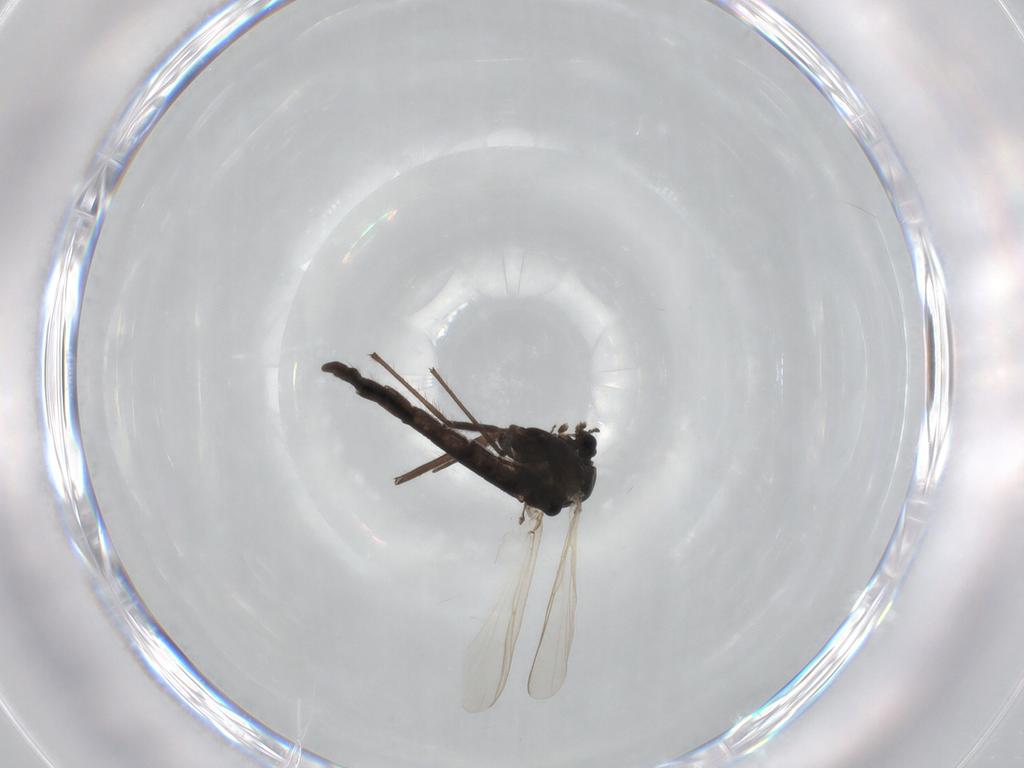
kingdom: Animalia
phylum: Arthropoda
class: Insecta
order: Diptera
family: Chironomidae
